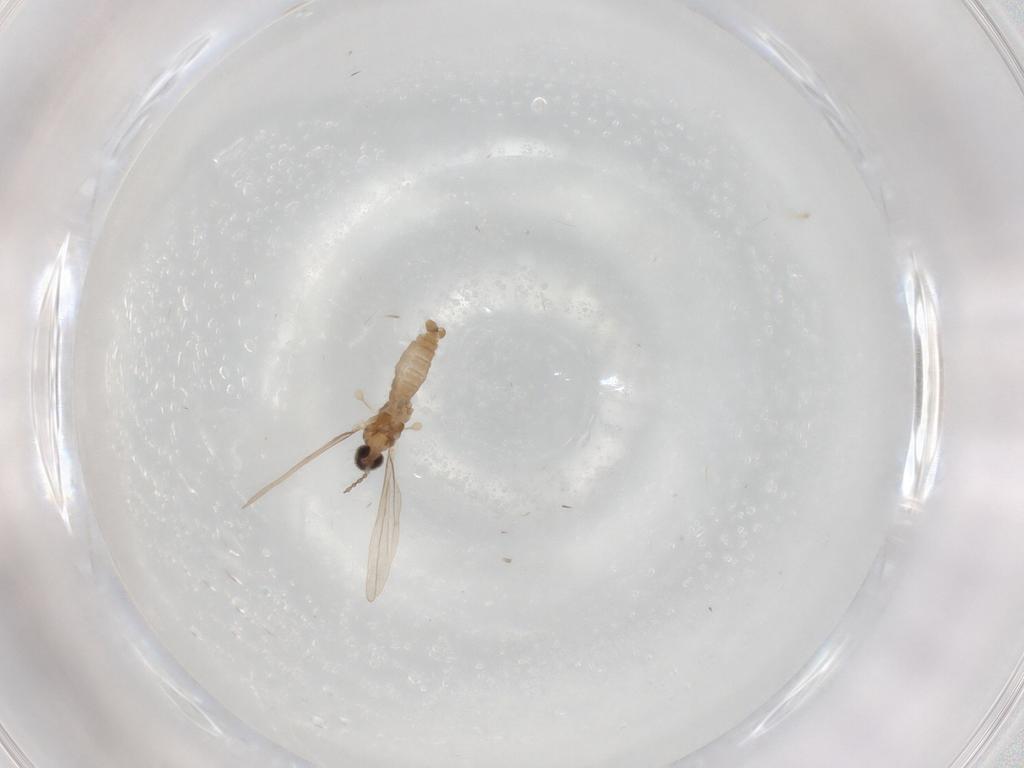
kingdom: Animalia
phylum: Arthropoda
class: Insecta
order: Diptera
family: Cecidomyiidae
